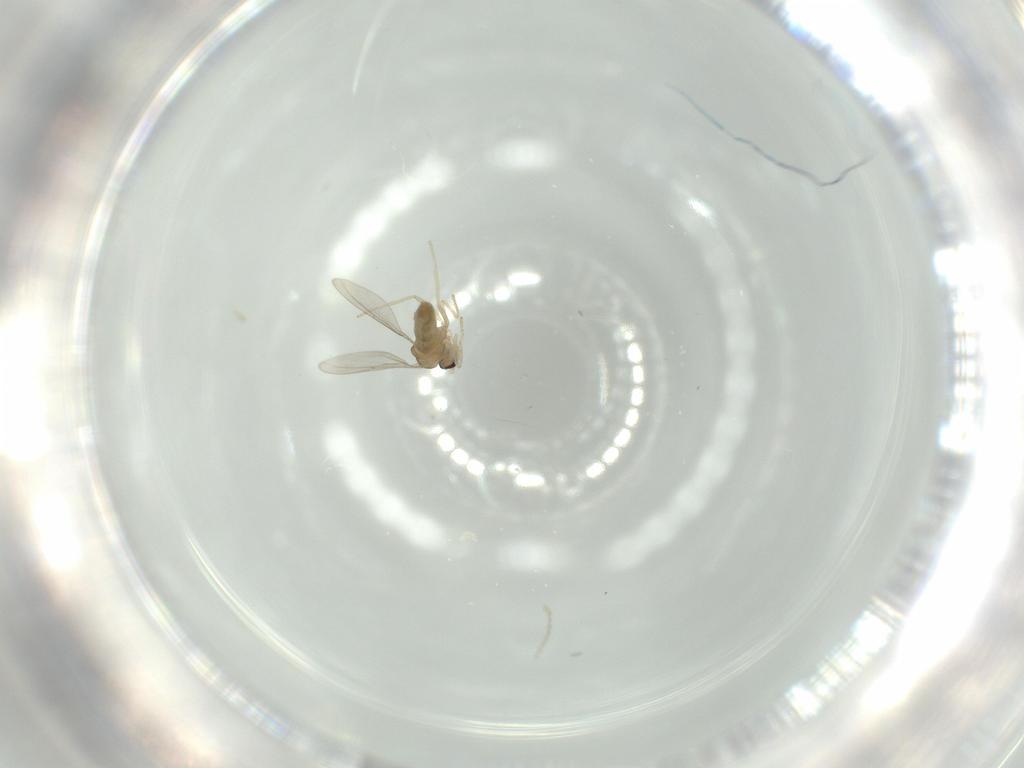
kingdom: Animalia
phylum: Arthropoda
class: Insecta
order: Diptera
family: Cecidomyiidae
